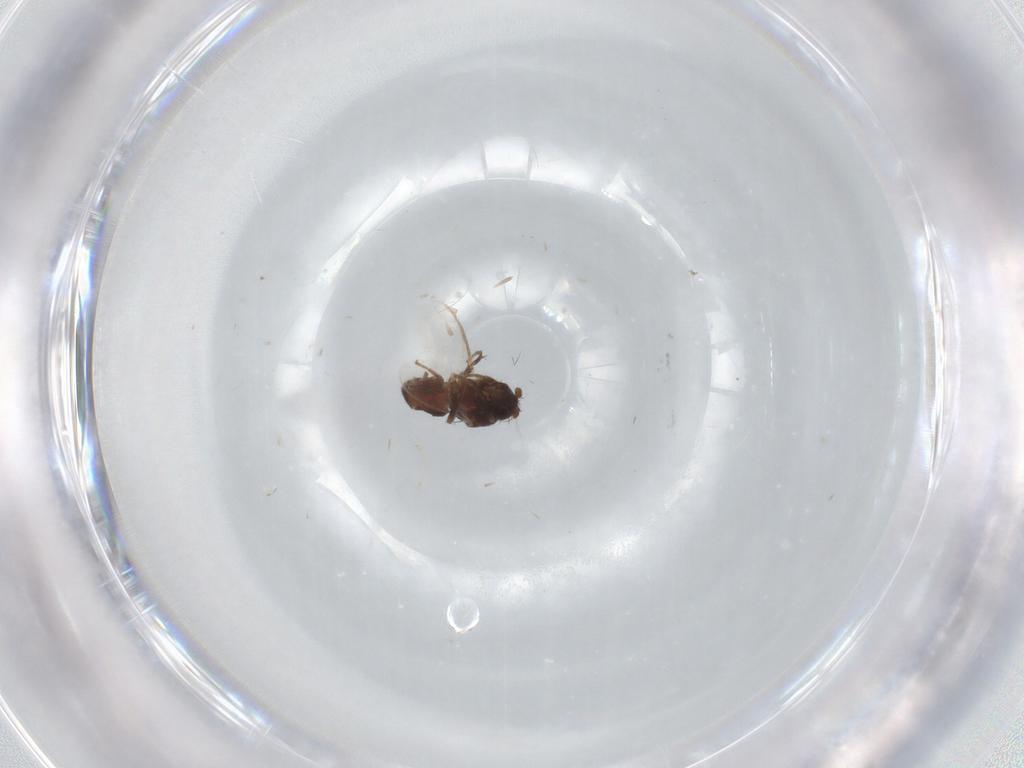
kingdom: Animalia
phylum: Arthropoda
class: Insecta
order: Diptera
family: Sphaeroceridae
